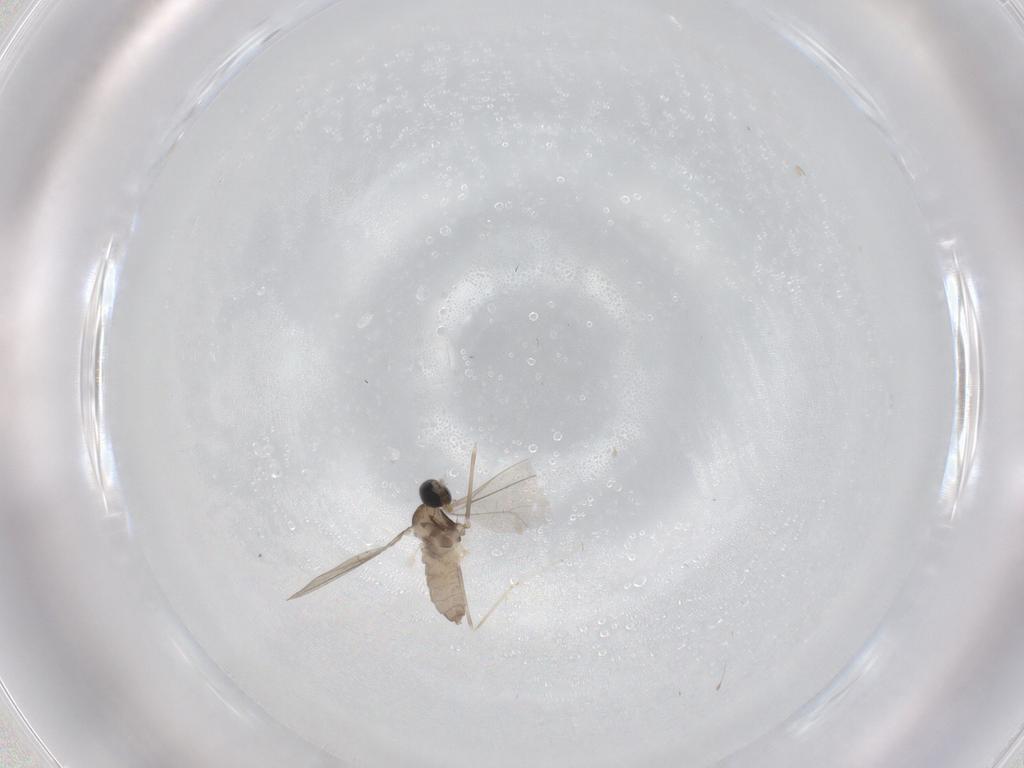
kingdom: Animalia
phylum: Arthropoda
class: Insecta
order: Diptera
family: Cecidomyiidae
